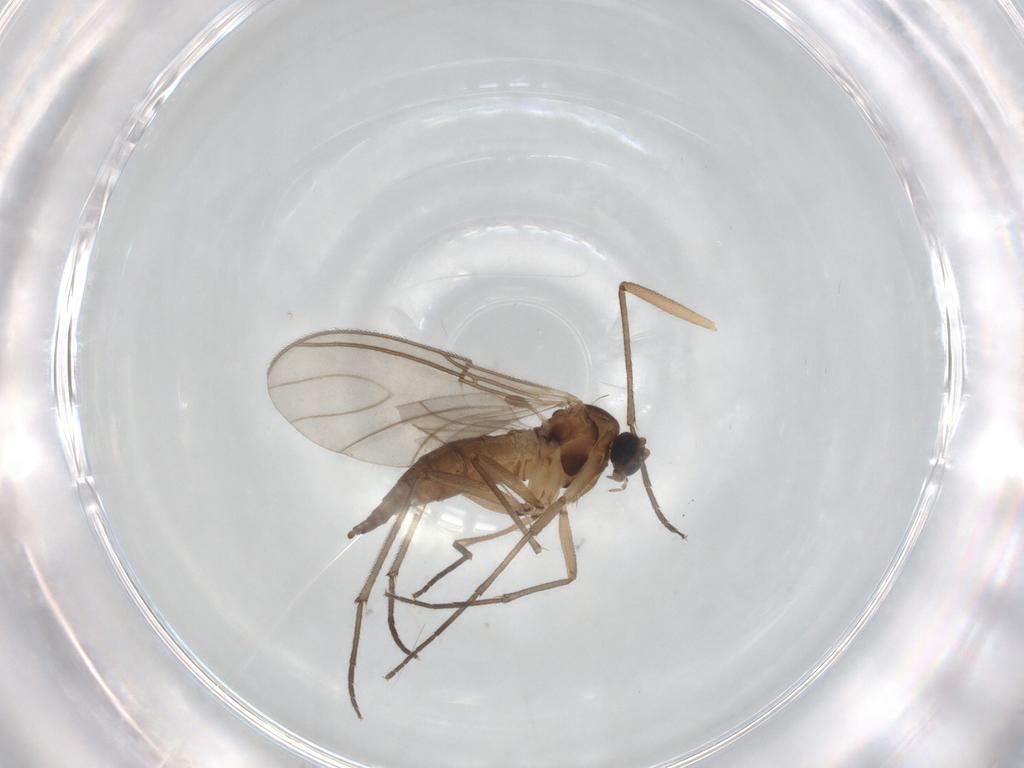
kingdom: Animalia
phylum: Arthropoda
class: Insecta
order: Diptera
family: Sciaridae
